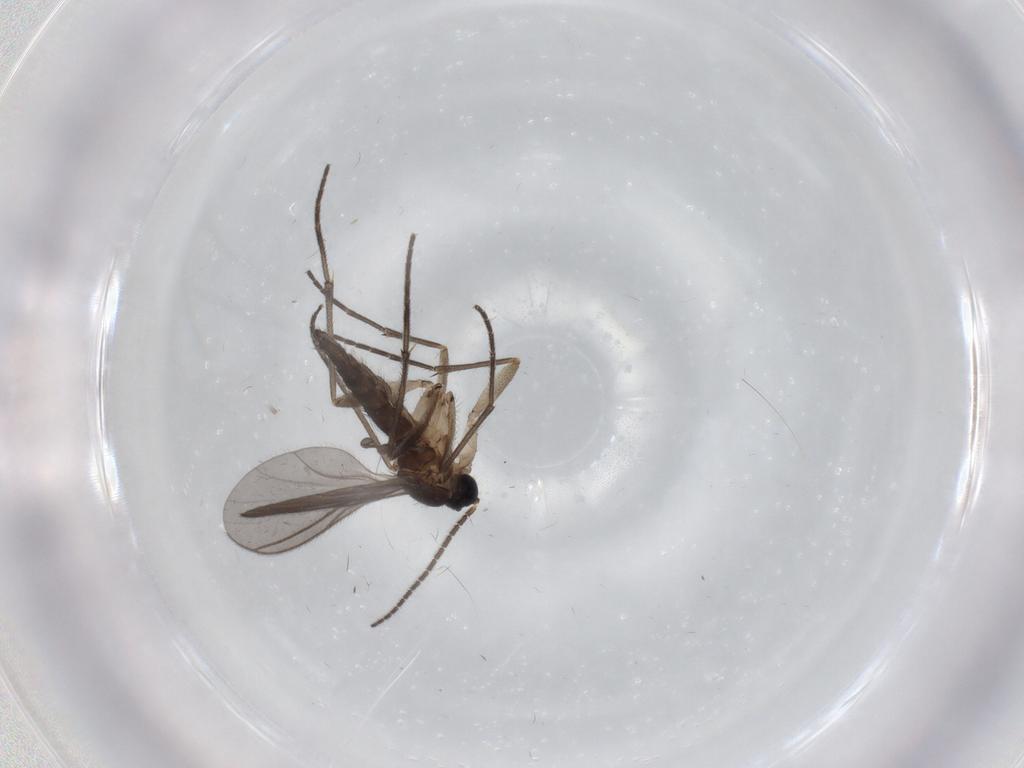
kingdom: Animalia
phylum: Arthropoda
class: Insecta
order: Diptera
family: Sciaridae
